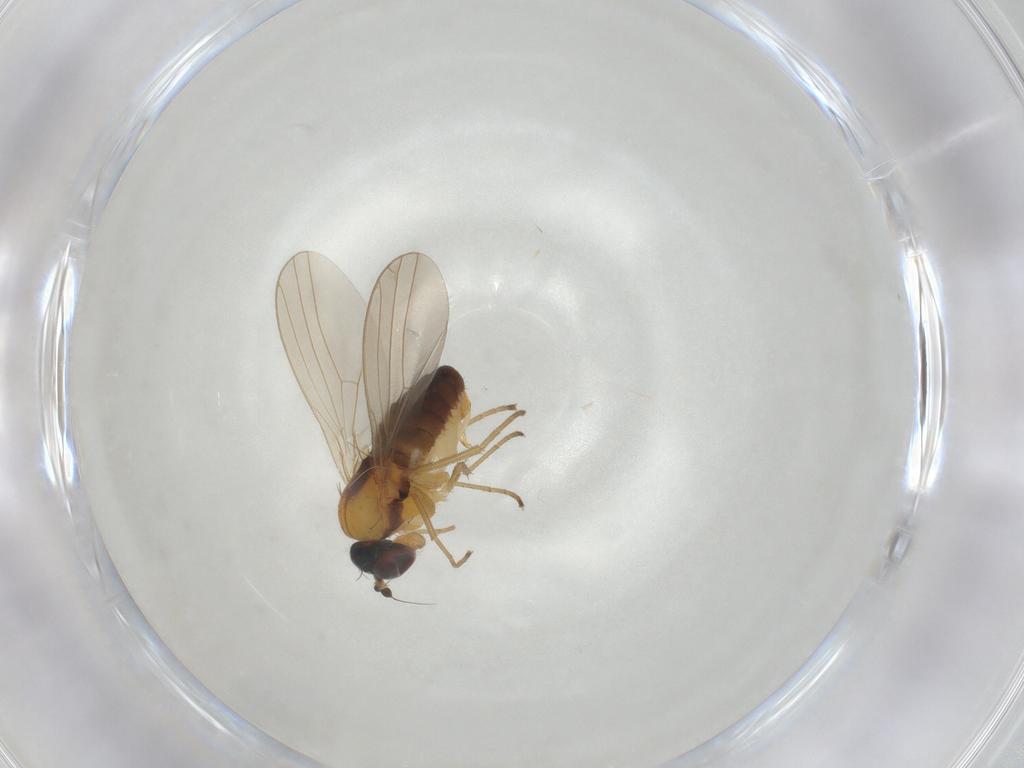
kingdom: Animalia
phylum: Arthropoda
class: Insecta
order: Diptera
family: Dolichopodidae
